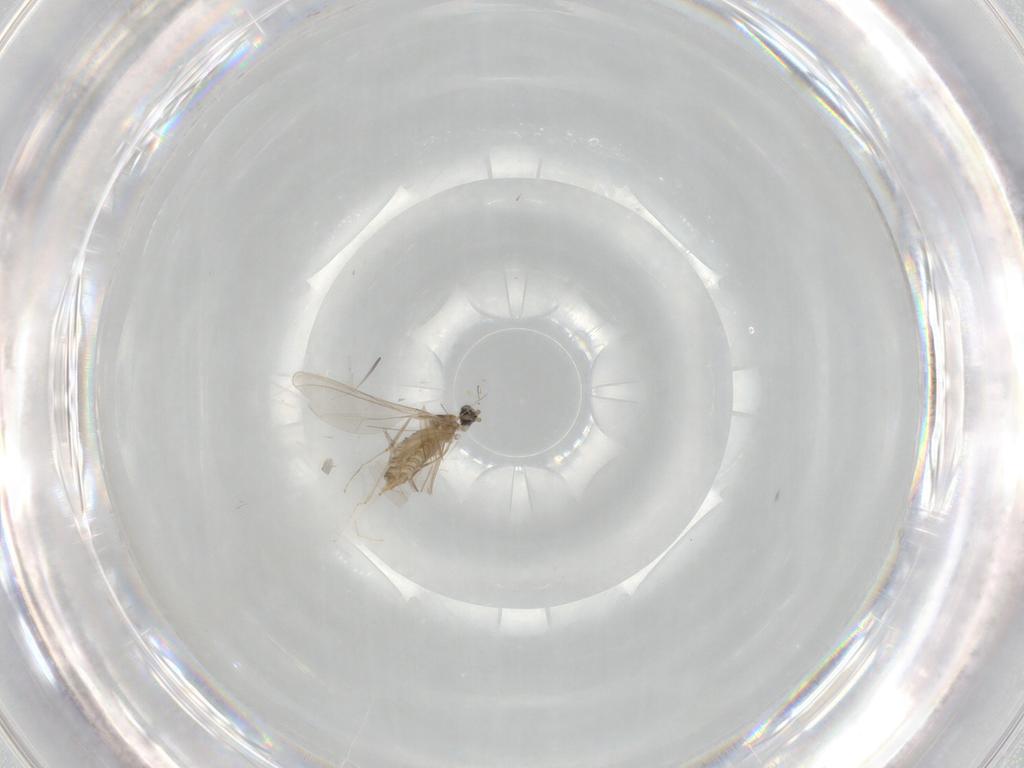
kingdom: Animalia
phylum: Arthropoda
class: Insecta
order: Diptera
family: Cecidomyiidae
